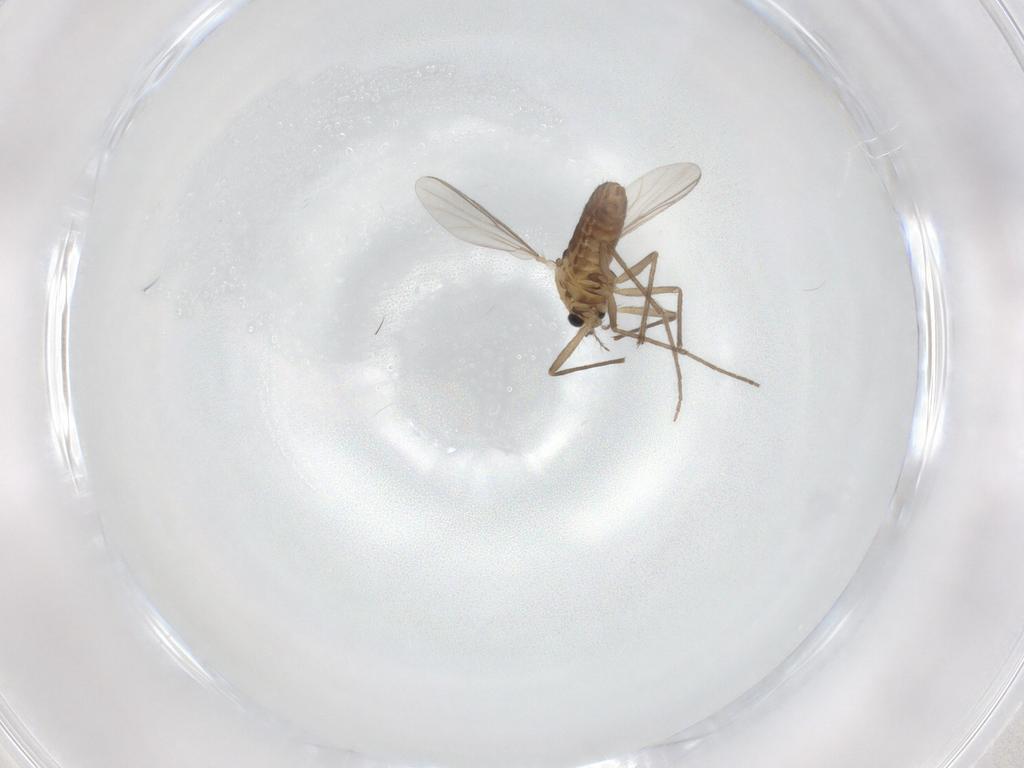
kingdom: Animalia
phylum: Arthropoda
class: Insecta
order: Diptera
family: Chironomidae
